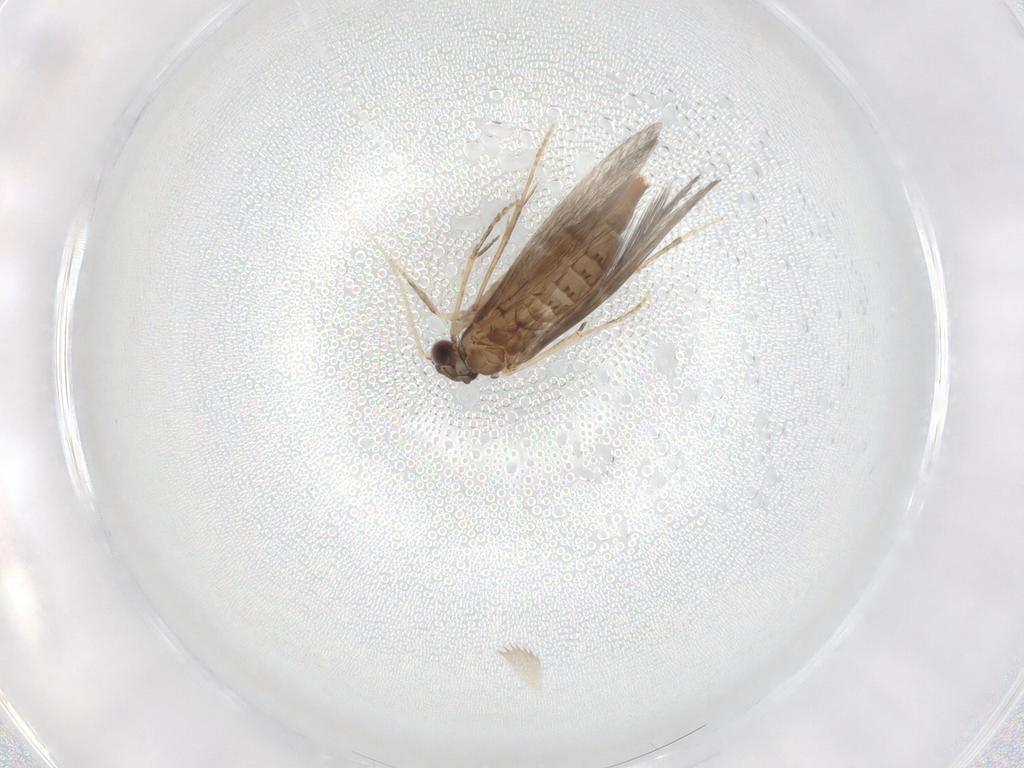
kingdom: Animalia
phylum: Arthropoda
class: Insecta
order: Trichoptera
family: Hydroptilidae
